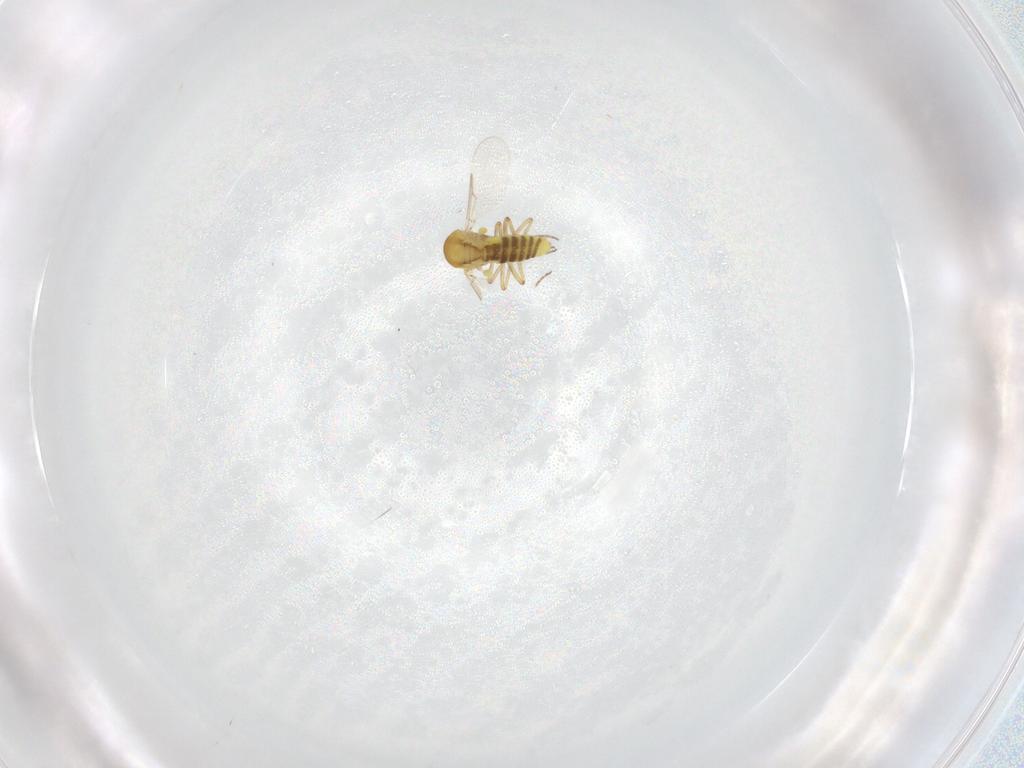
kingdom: Animalia
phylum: Arthropoda
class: Insecta
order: Diptera
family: Ceratopogonidae
